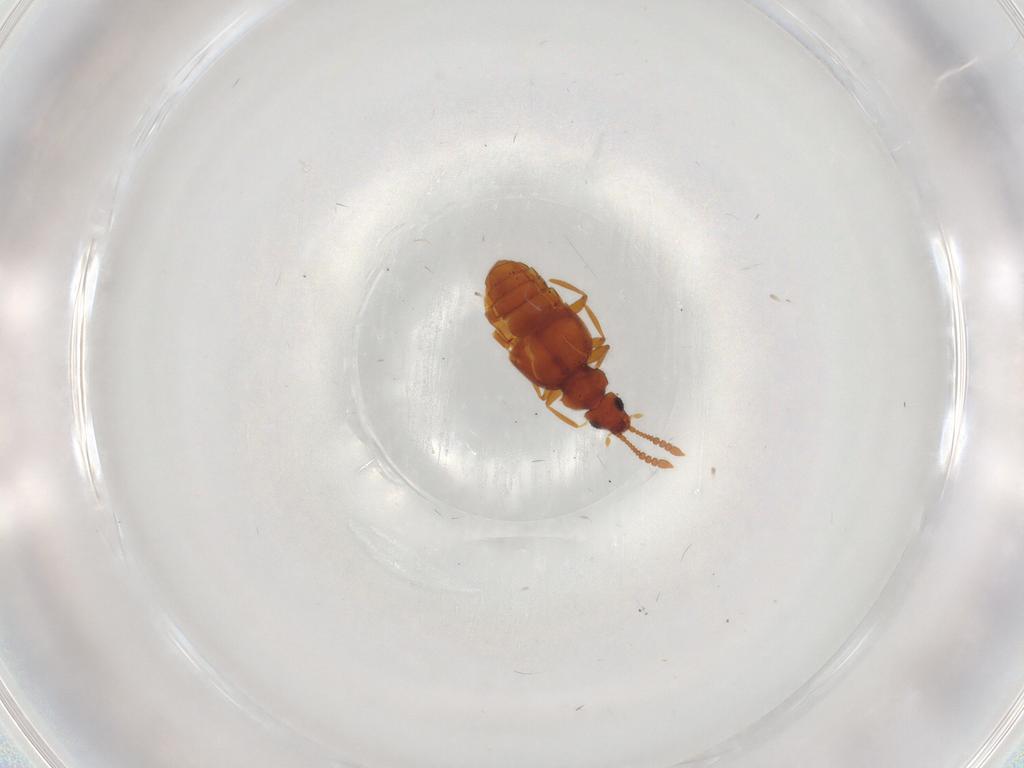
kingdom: Animalia
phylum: Arthropoda
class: Insecta
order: Coleoptera
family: Staphylinidae
